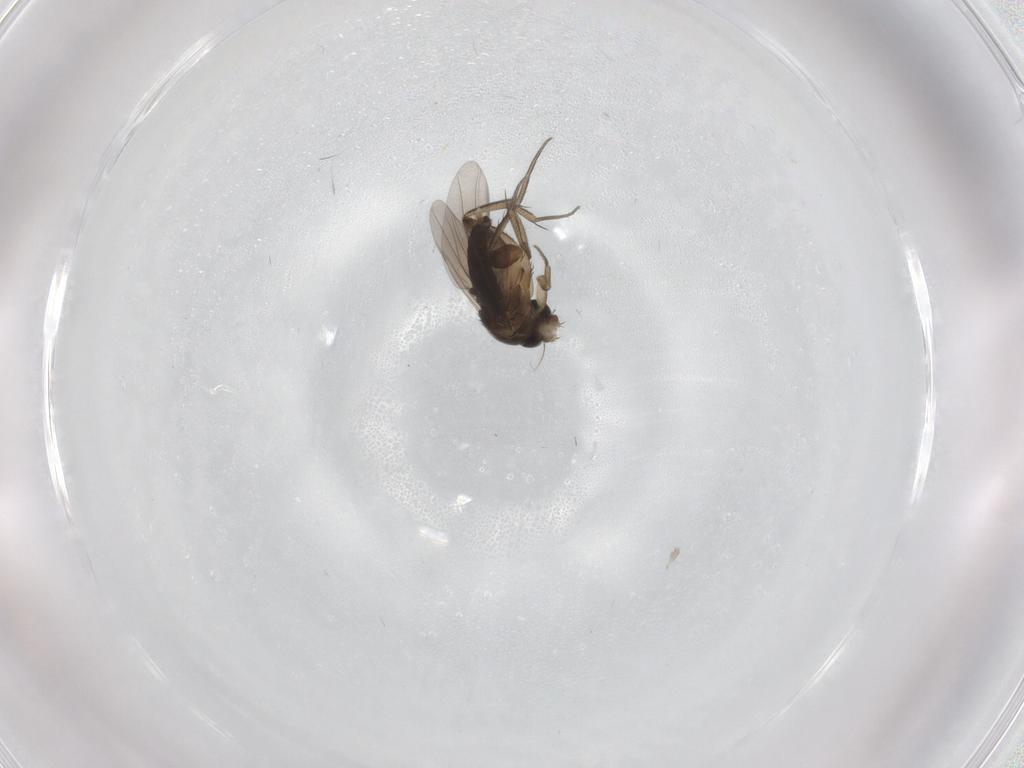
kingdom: Animalia
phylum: Arthropoda
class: Insecta
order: Diptera
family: Phoridae
